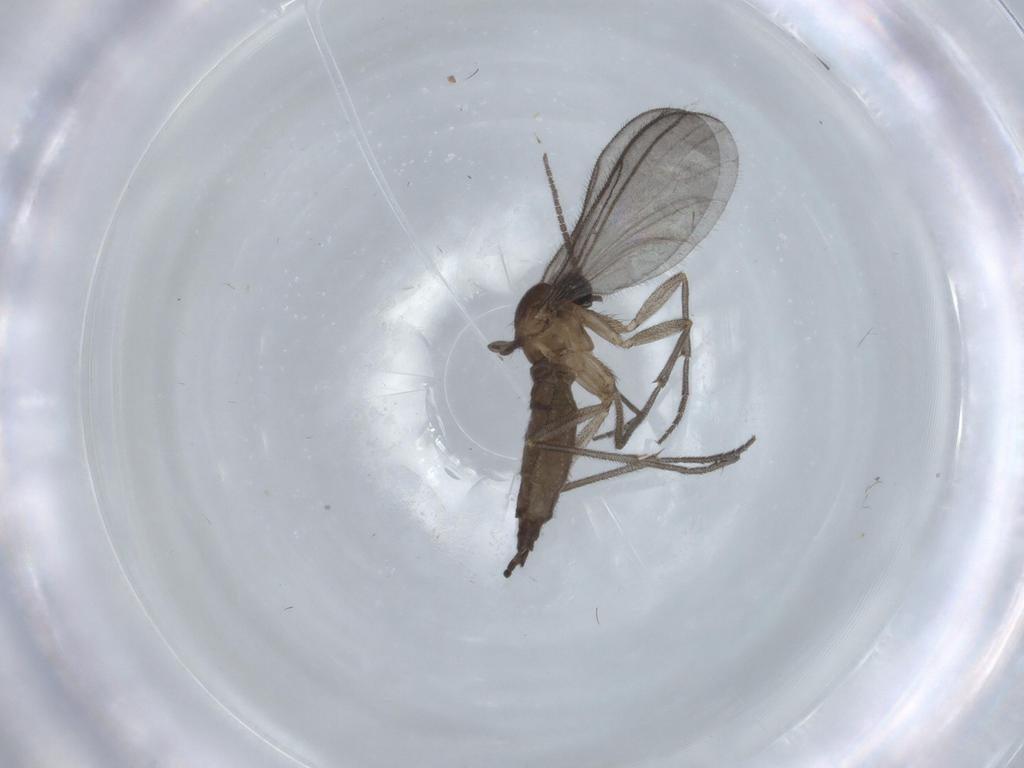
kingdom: Animalia
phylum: Arthropoda
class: Insecta
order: Diptera
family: Sciaridae
